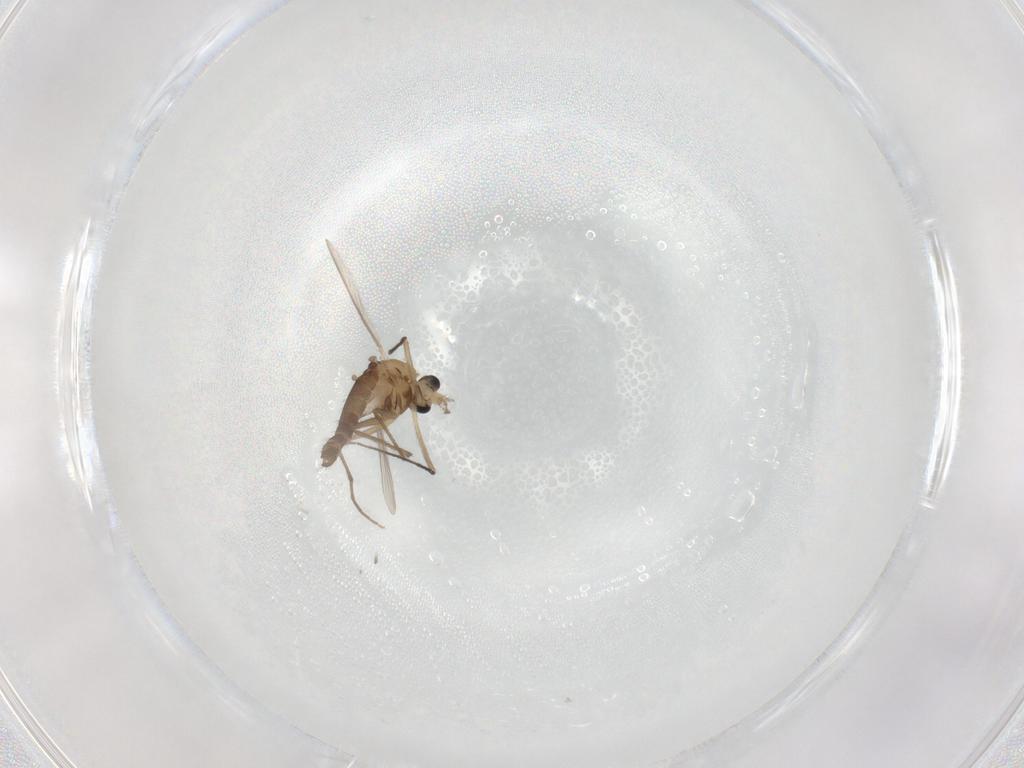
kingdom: Animalia
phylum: Arthropoda
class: Insecta
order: Diptera
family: Chironomidae
